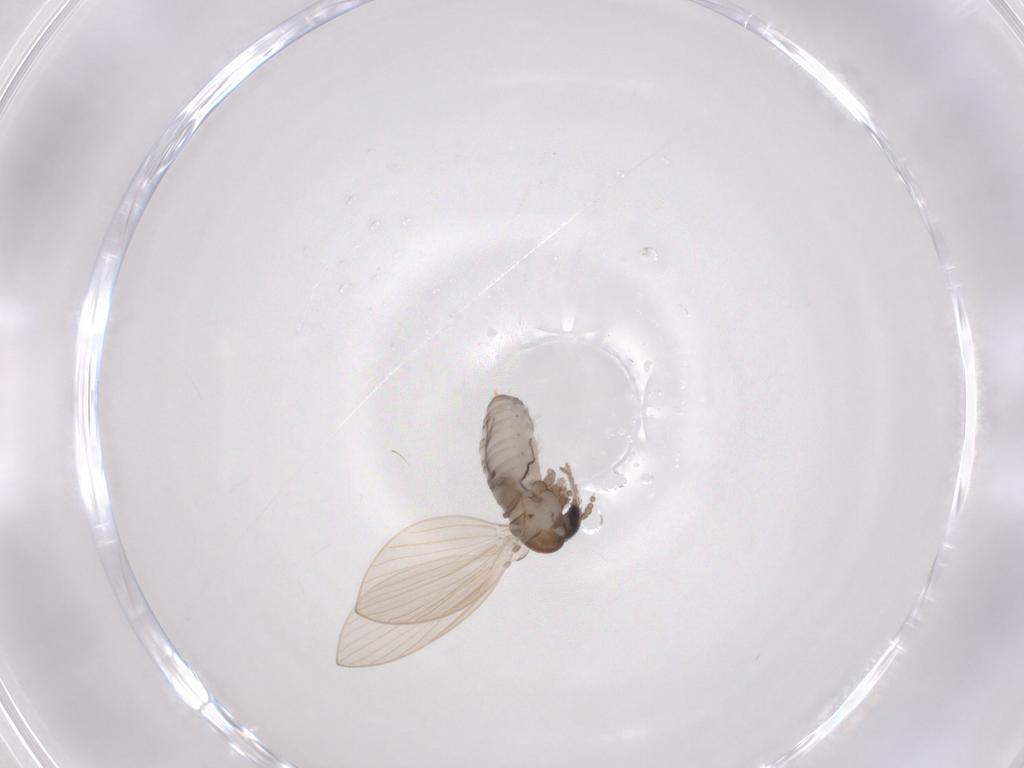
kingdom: Animalia
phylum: Arthropoda
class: Insecta
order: Diptera
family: Psychodidae
